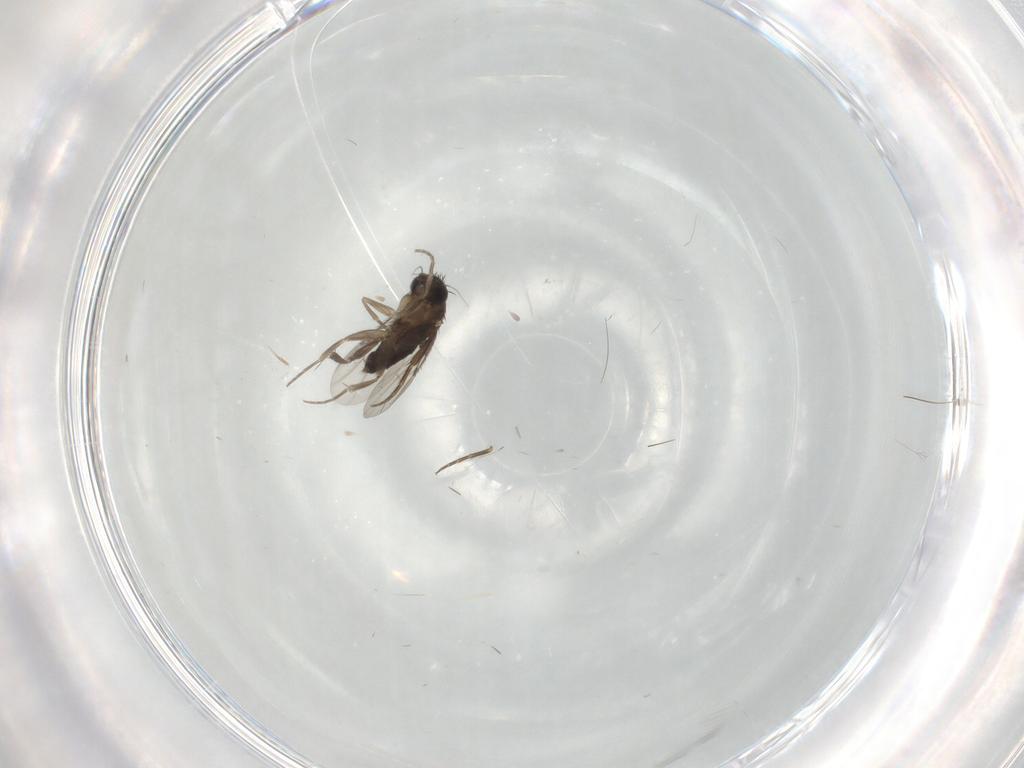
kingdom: Animalia
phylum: Arthropoda
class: Insecta
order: Diptera
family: Phoridae
